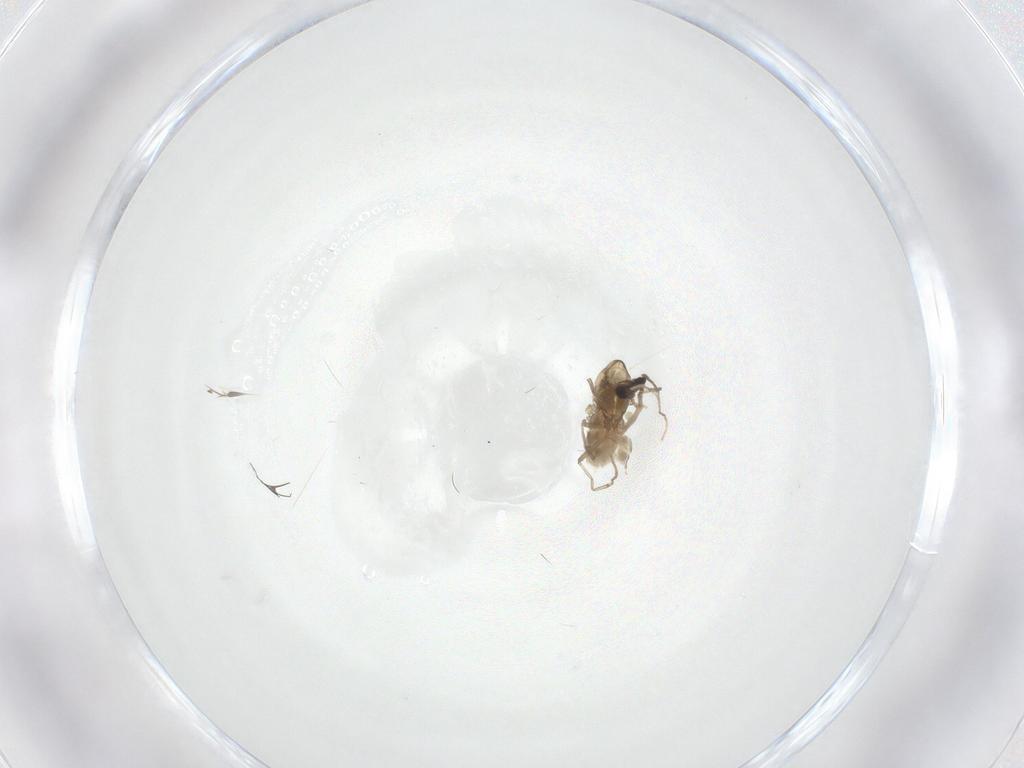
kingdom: Animalia
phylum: Arthropoda
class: Insecta
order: Diptera
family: Chironomidae
